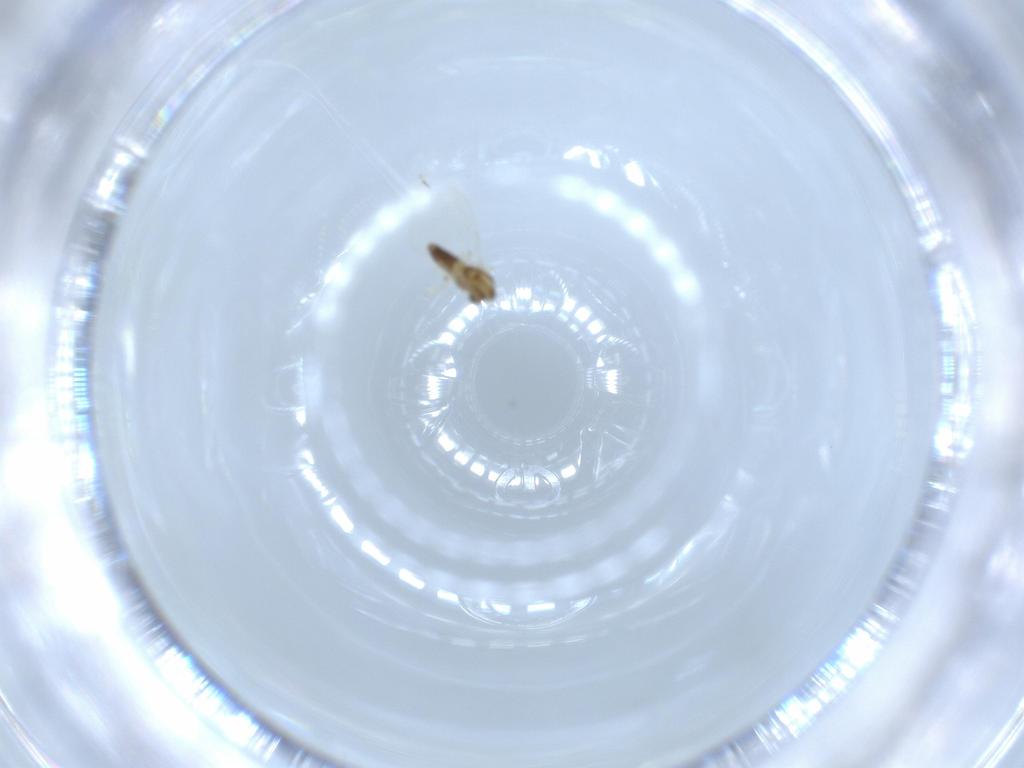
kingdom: Animalia
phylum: Arthropoda
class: Insecta
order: Diptera
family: Chironomidae
